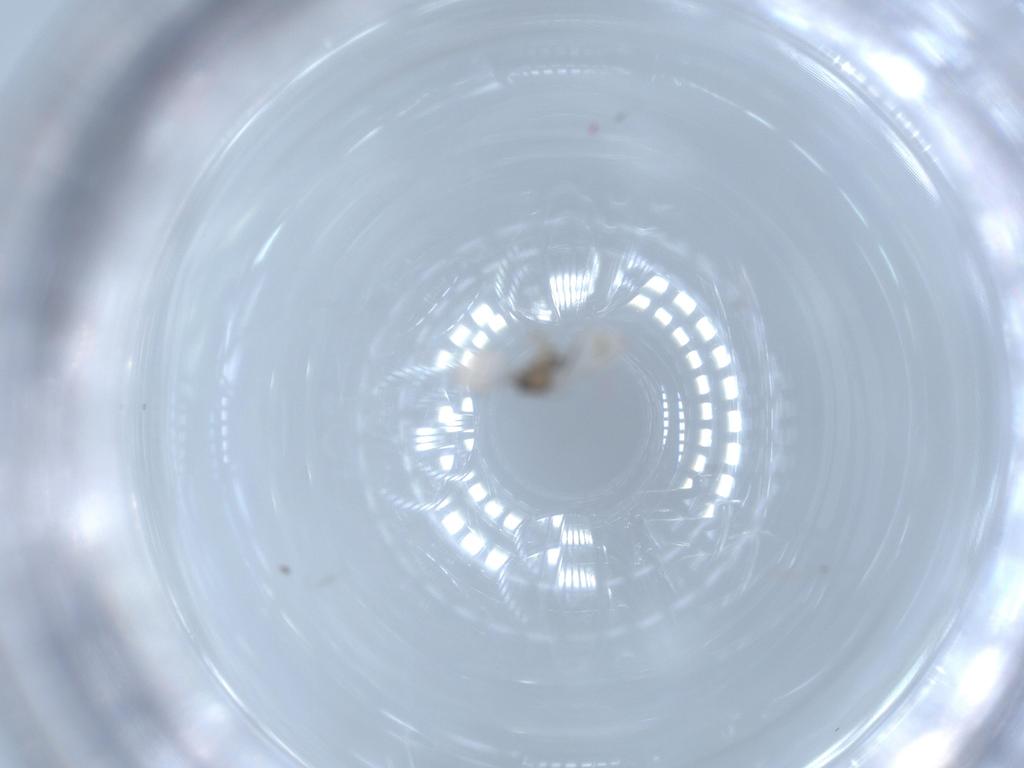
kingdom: Animalia
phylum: Arthropoda
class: Insecta
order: Diptera
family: Cecidomyiidae
